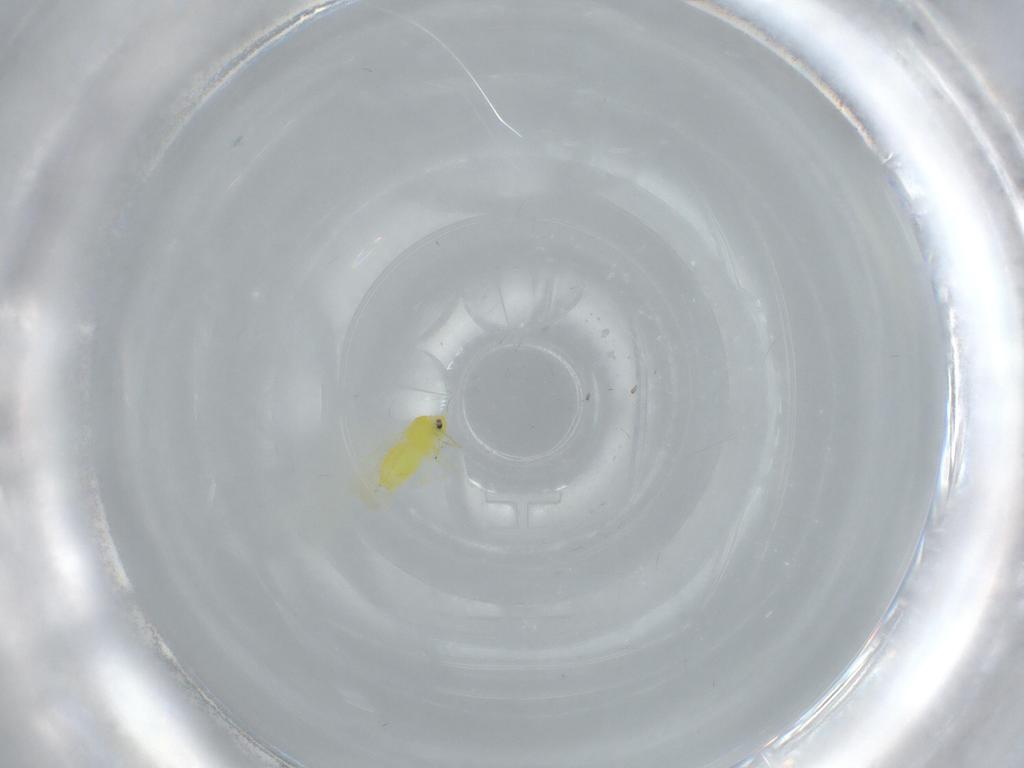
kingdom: Animalia
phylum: Arthropoda
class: Insecta
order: Hemiptera
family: Aleyrodidae
